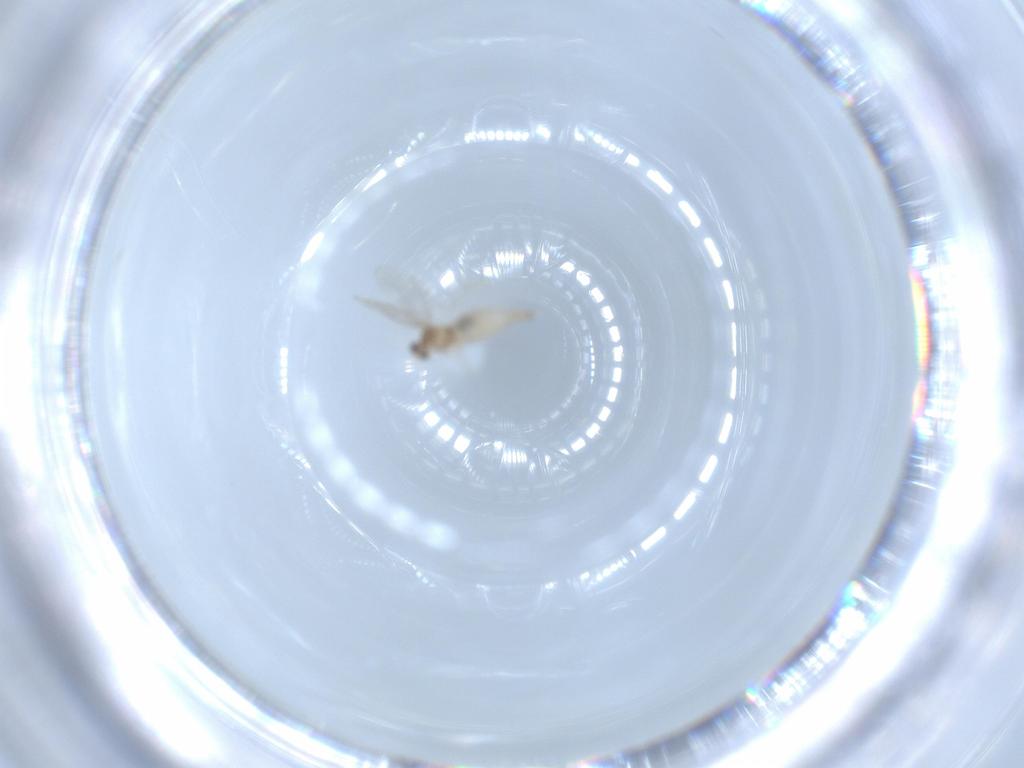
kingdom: Animalia
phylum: Arthropoda
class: Insecta
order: Diptera
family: Cecidomyiidae
